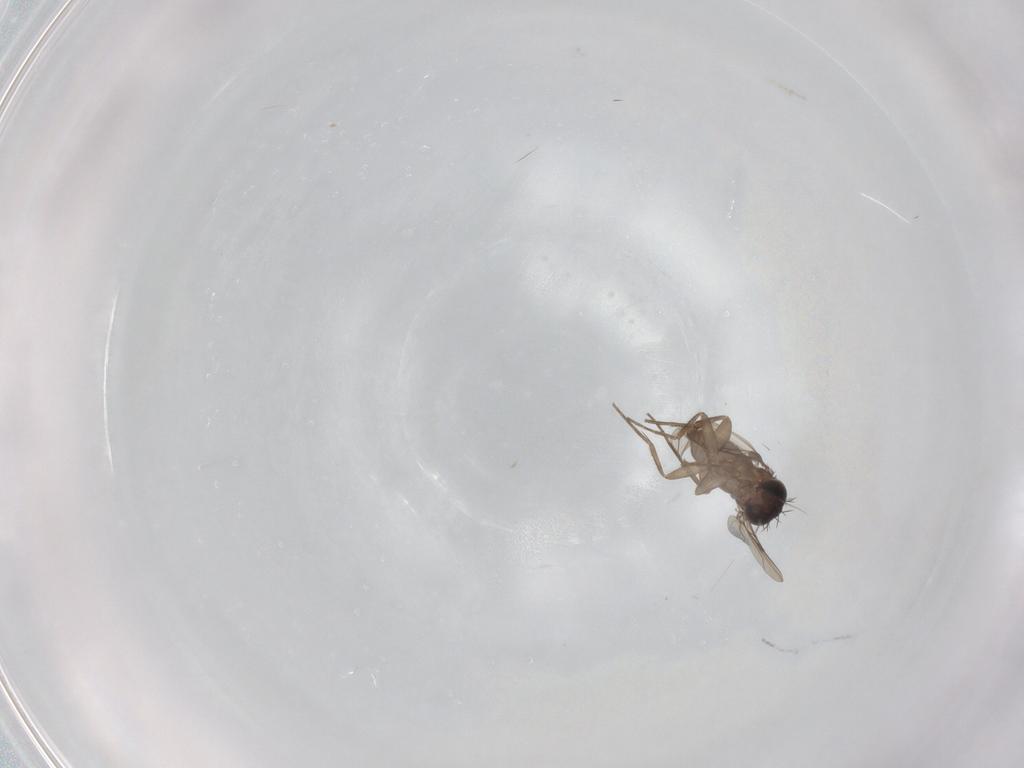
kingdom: Animalia
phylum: Arthropoda
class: Insecta
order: Diptera
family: Phoridae
